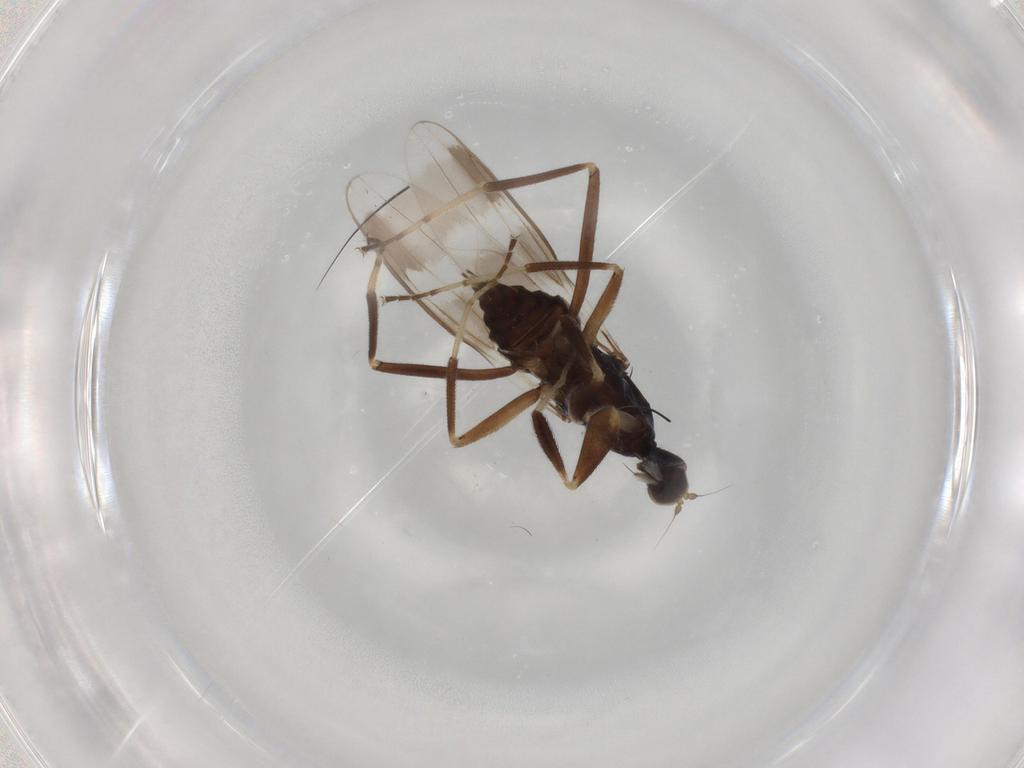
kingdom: Animalia
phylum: Arthropoda
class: Insecta
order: Diptera
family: Hybotidae
